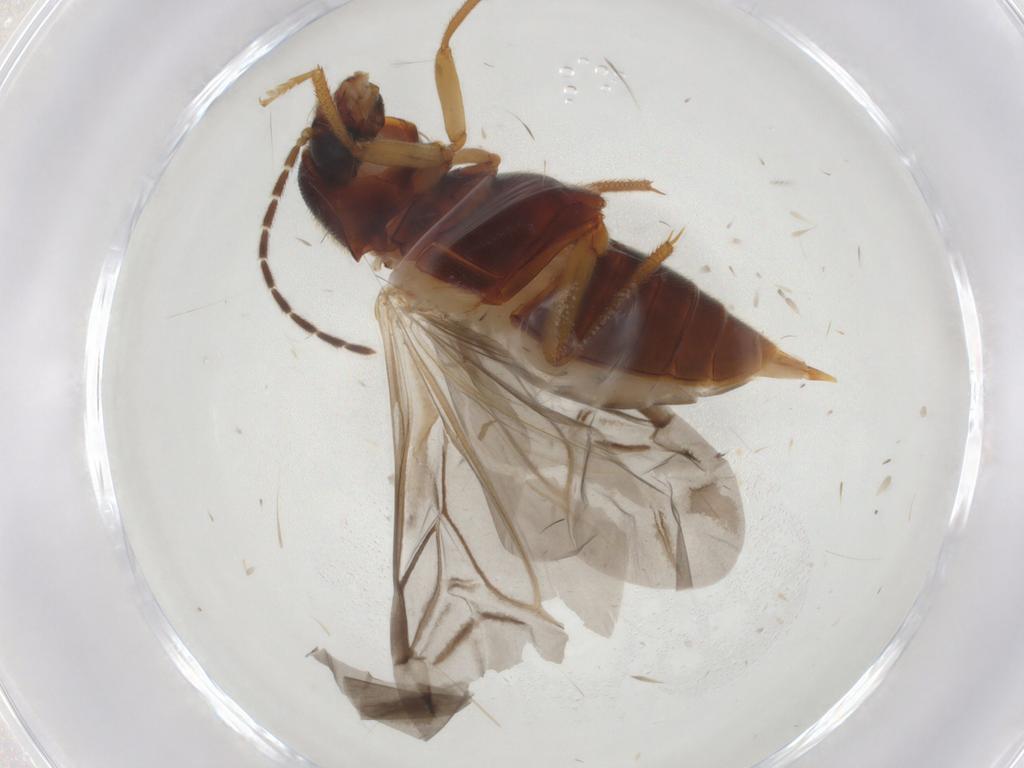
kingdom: Animalia
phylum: Arthropoda
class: Insecta
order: Coleoptera
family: Ptilodactylidae
